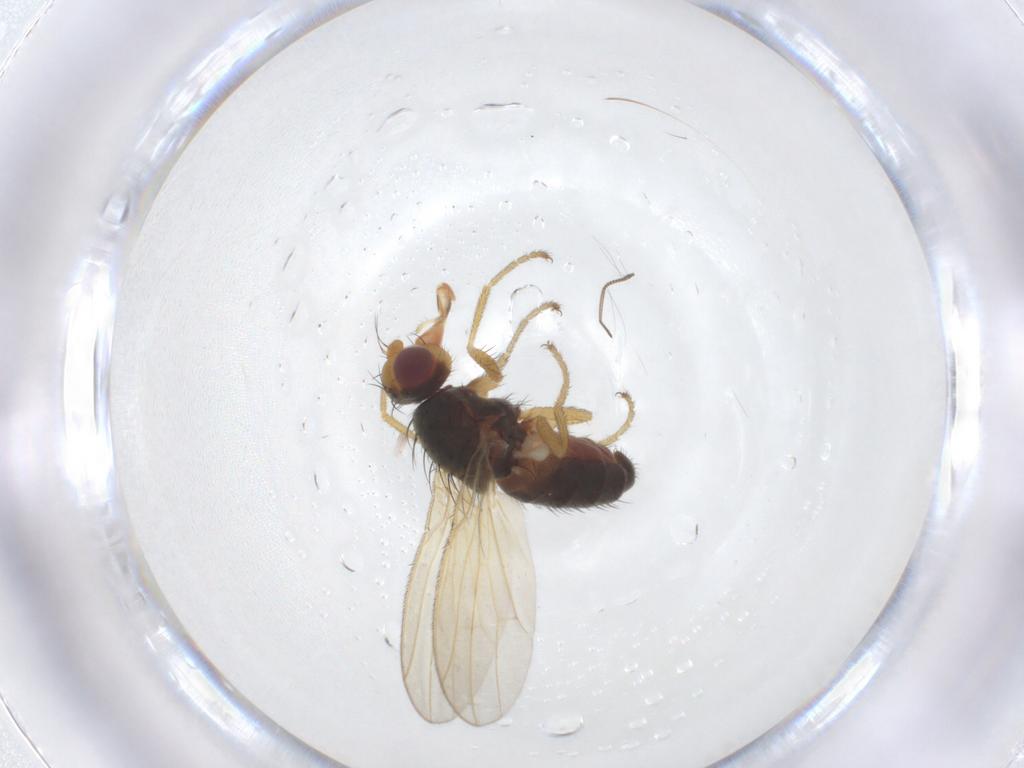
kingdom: Animalia
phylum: Arthropoda
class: Insecta
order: Diptera
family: Heleomyzidae
